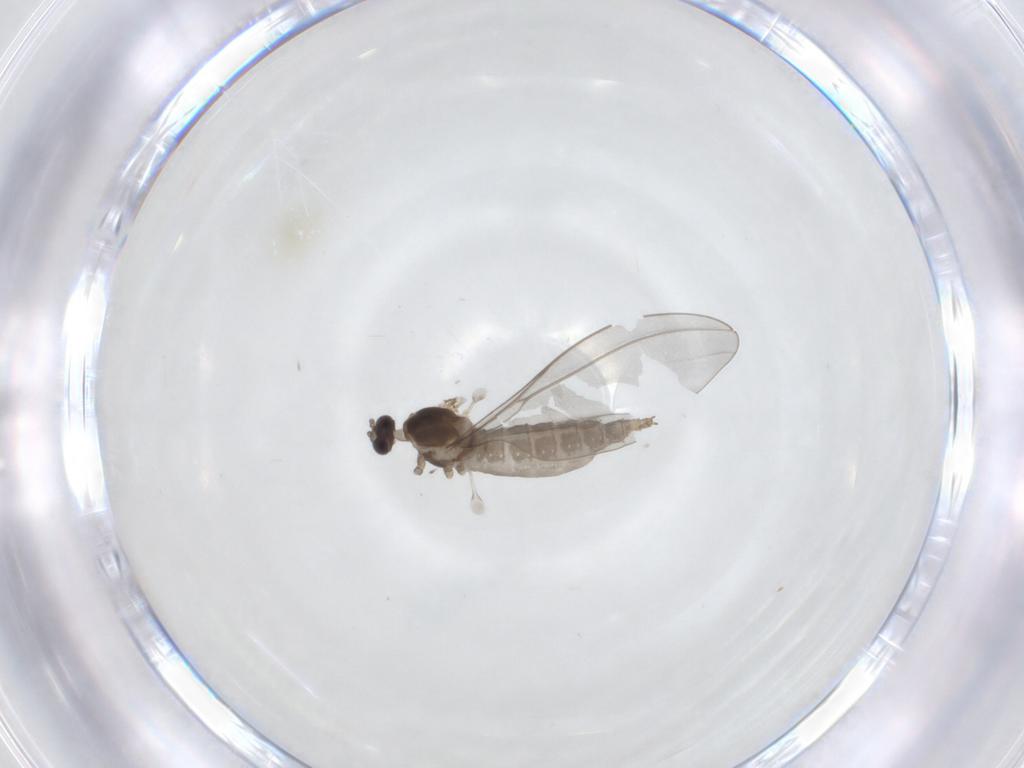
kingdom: Animalia
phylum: Arthropoda
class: Insecta
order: Diptera
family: Cecidomyiidae
